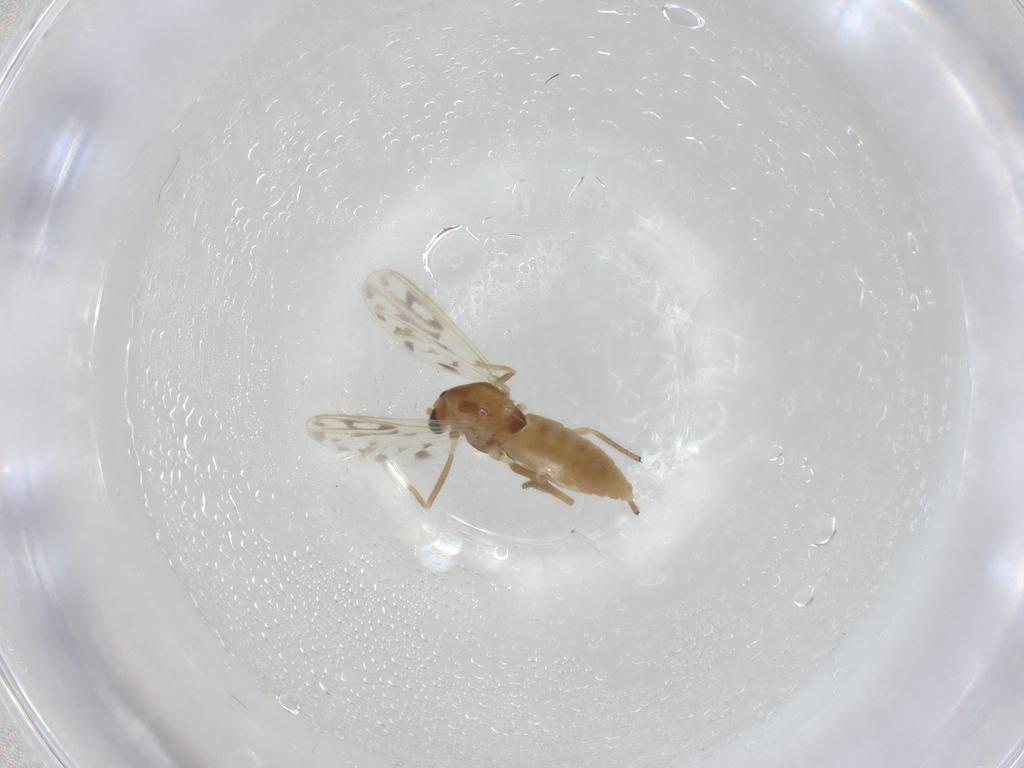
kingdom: Animalia
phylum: Arthropoda
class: Insecta
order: Diptera
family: Chironomidae
